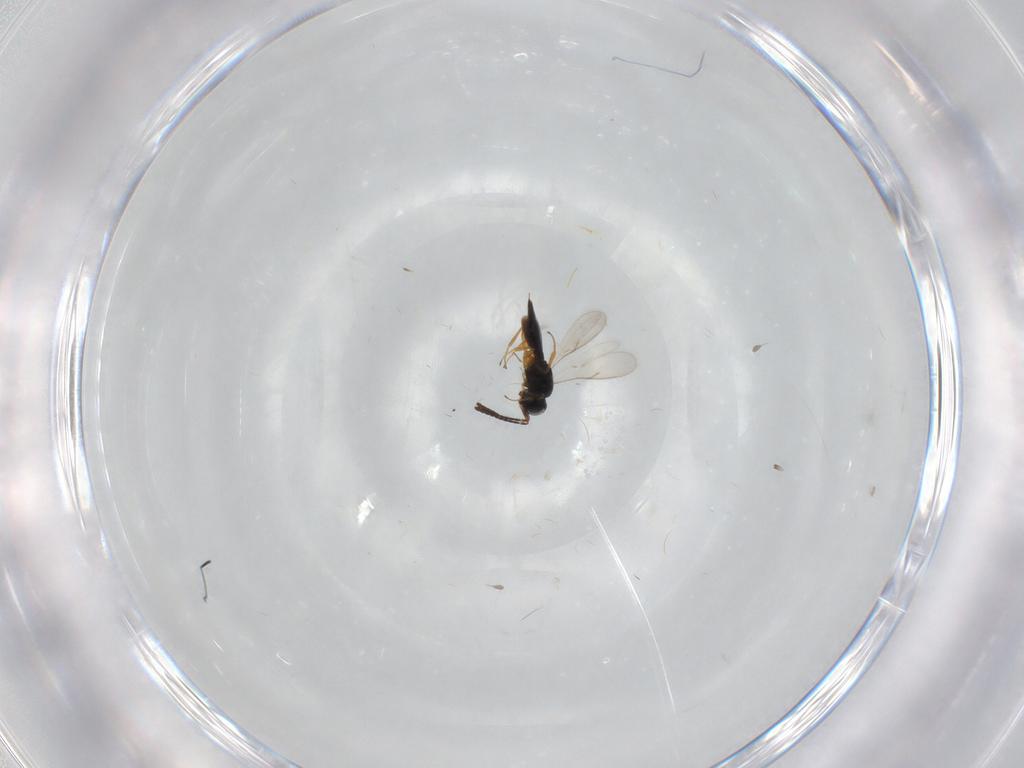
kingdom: Animalia
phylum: Arthropoda
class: Insecta
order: Hymenoptera
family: Scelionidae
